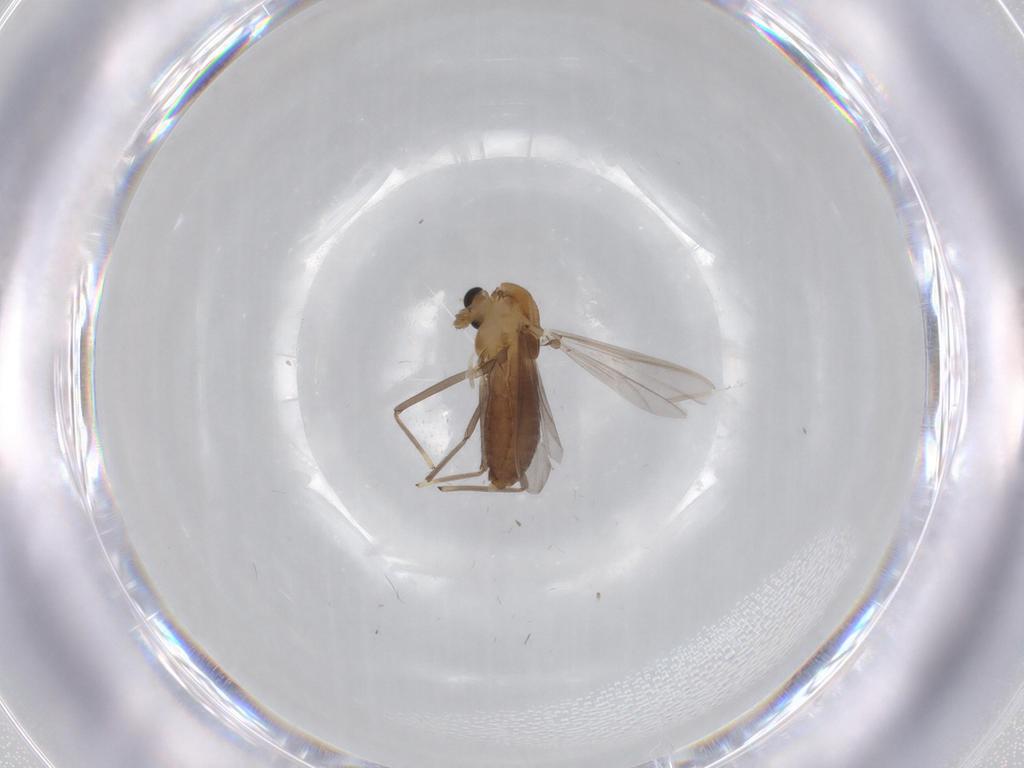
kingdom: Animalia
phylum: Arthropoda
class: Insecta
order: Diptera
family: Chironomidae
